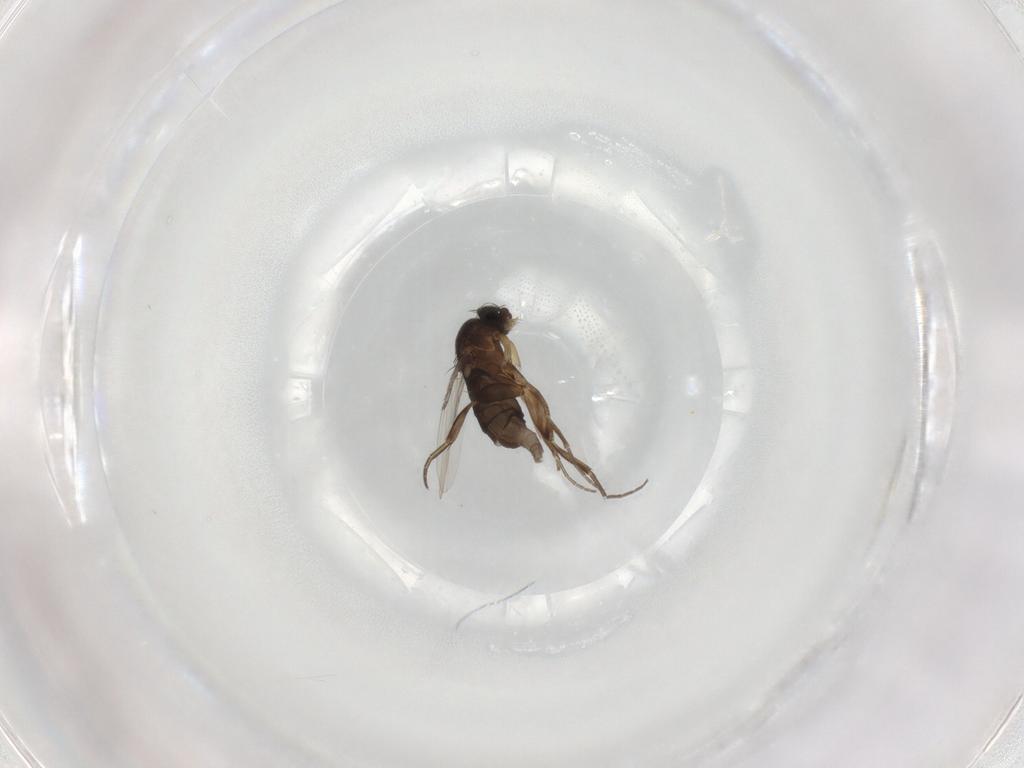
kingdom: Animalia
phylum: Arthropoda
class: Insecta
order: Diptera
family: Phoridae
